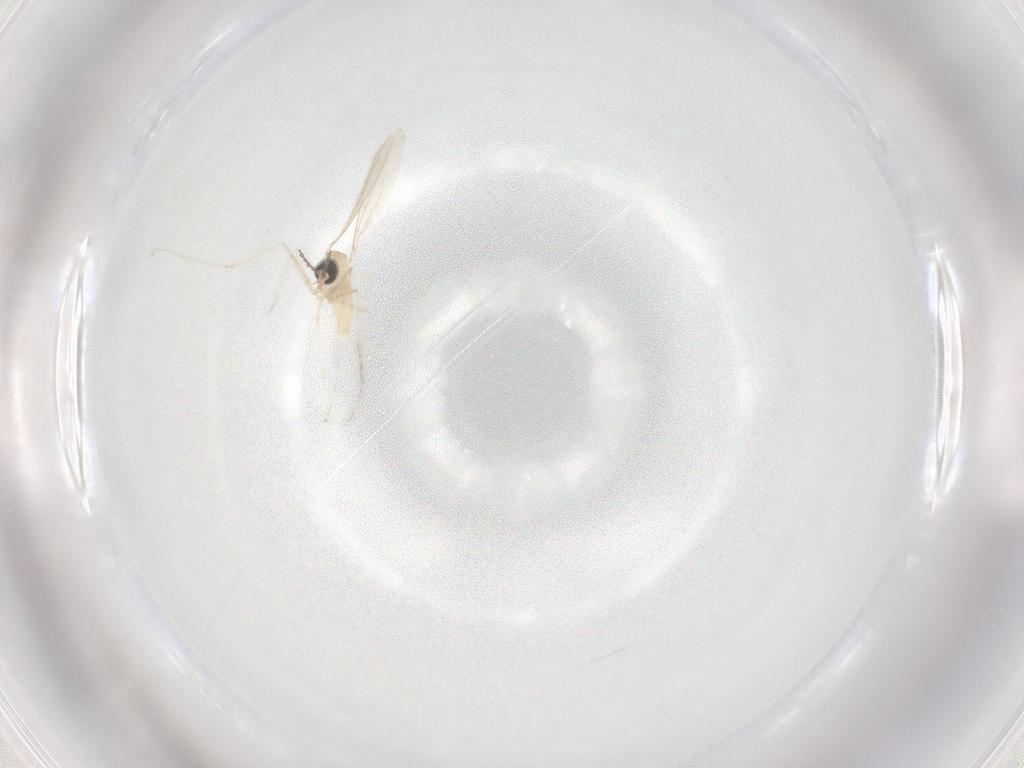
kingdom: Animalia
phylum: Arthropoda
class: Insecta
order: Diptera
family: Cecidomyiidae
